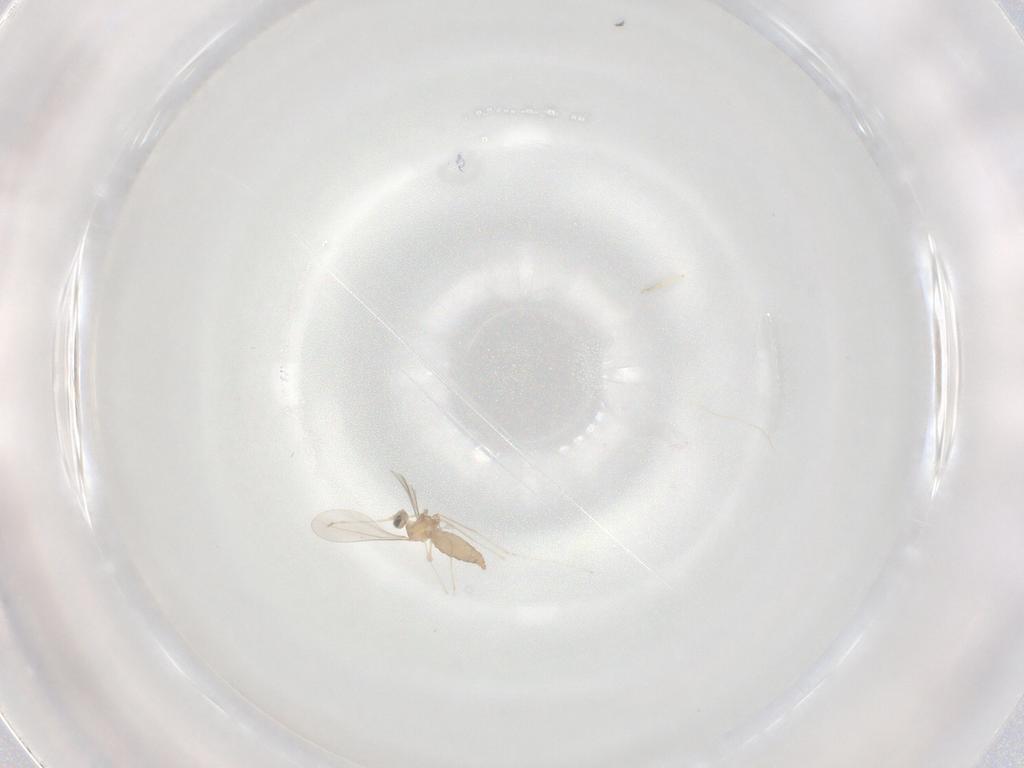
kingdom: Animalia
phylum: Arthropoda
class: Insecta
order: Diptera
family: Cecidomyiidae
